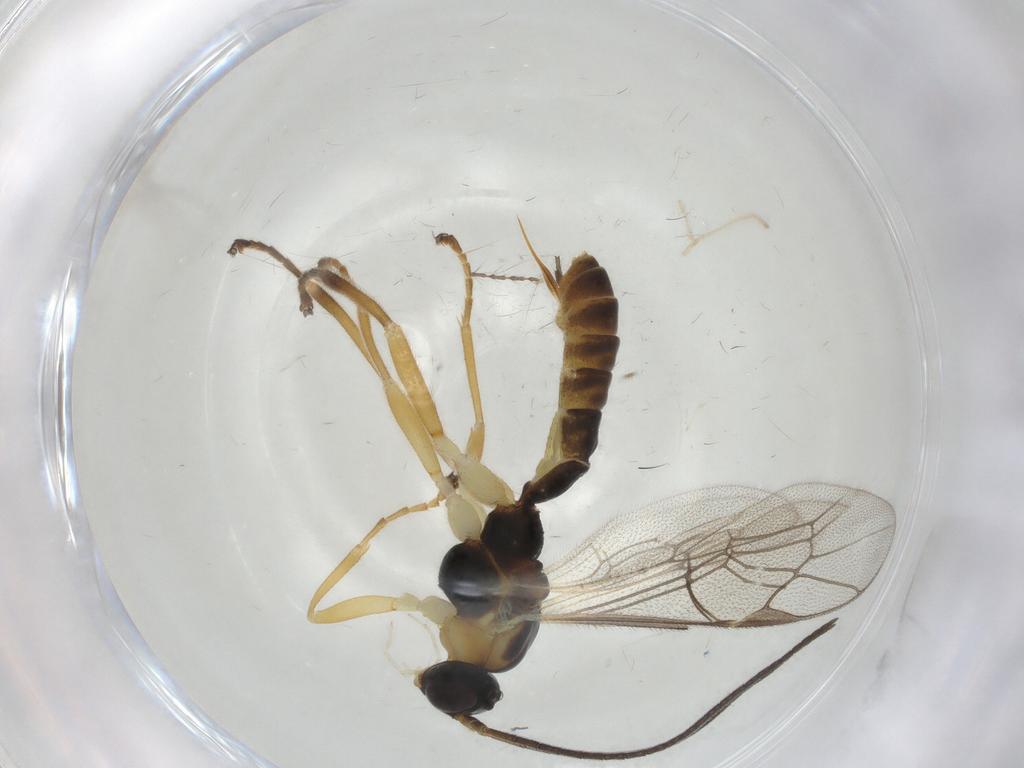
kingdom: Animalia
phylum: Arthropoda
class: Insecta
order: Hymenoptera
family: Ichneumonidae
